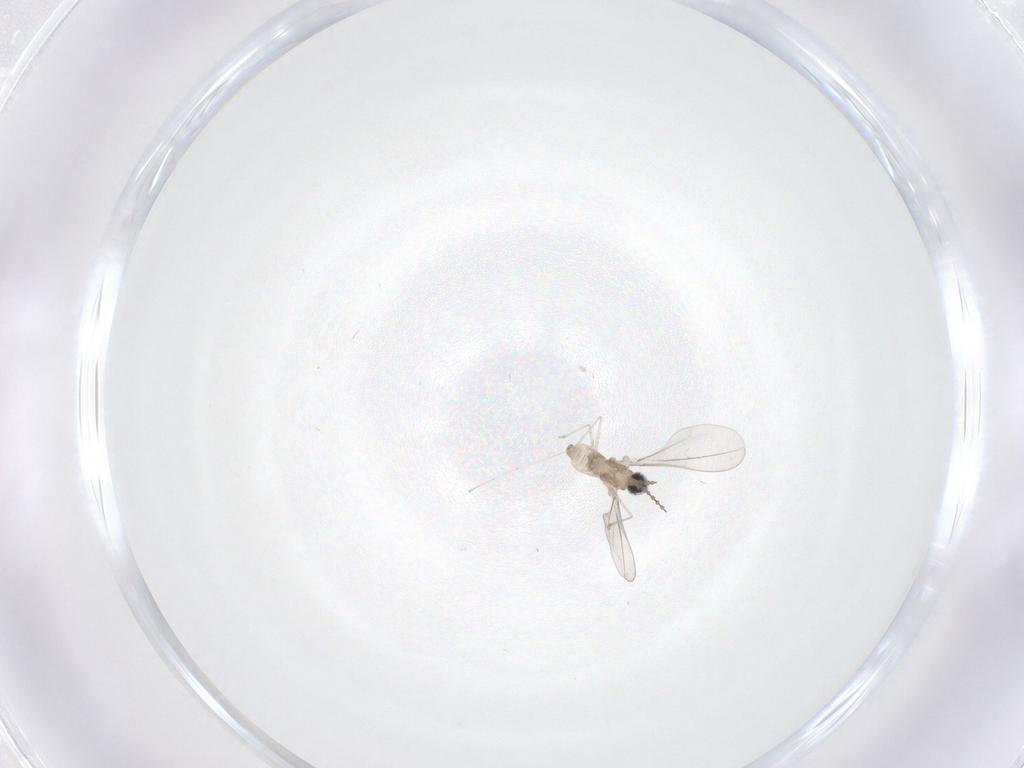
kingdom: Animalia
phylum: Arthropoda
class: Insecta
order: Diptera
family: Cecidomyiidae
